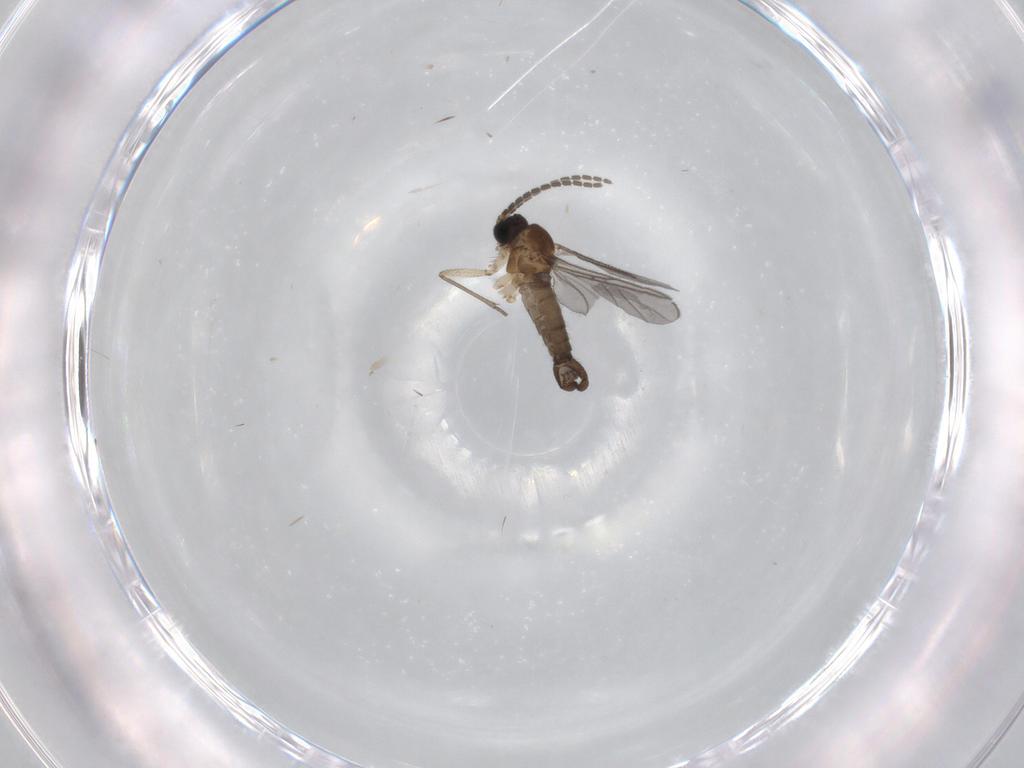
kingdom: Animalia
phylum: Arthropoda
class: Insecta
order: Diptera
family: Sciaridae
